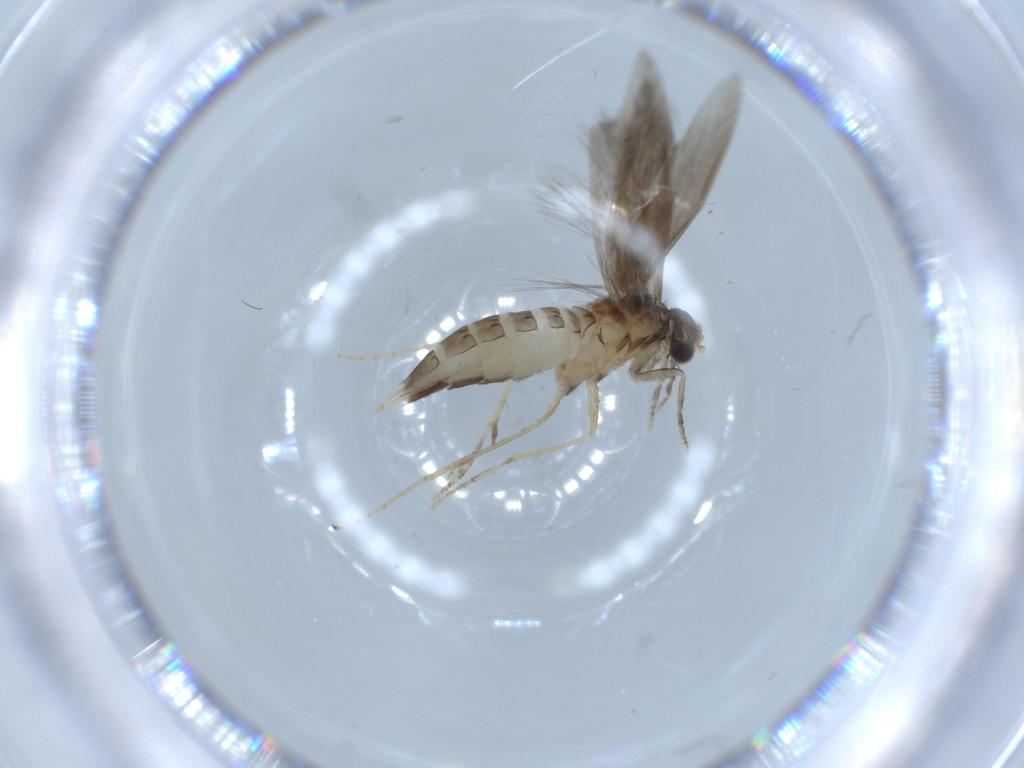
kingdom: Animalia
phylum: Arthropoda
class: Insecta
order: Trichoptera
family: Hydroptilidae
